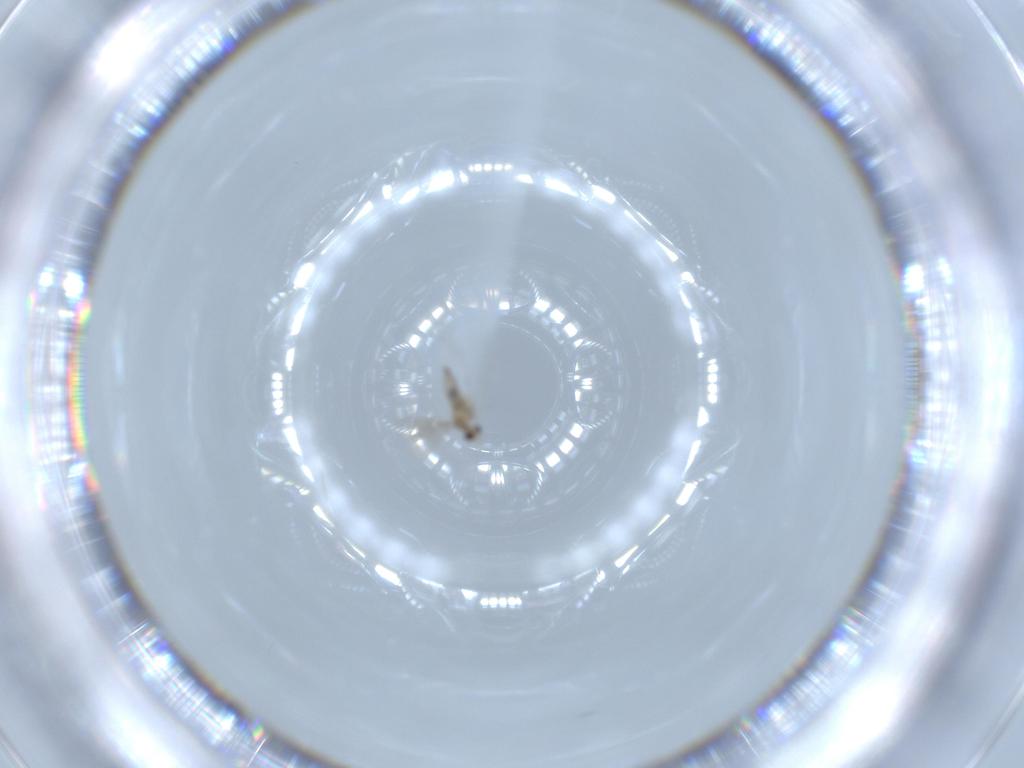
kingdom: Animalia
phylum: Arthropoda
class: Insecta
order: Diptera
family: Cecidomyiidae
